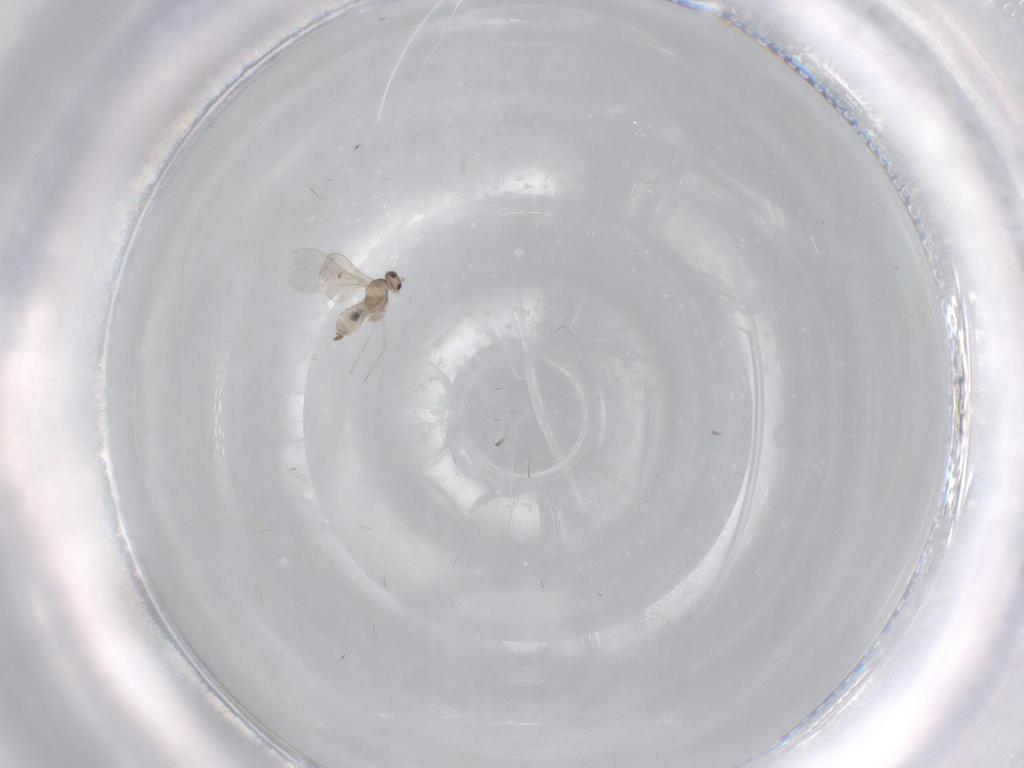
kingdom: Animalia
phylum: Arthropoda
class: Insecta
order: Diptera
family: Cecidomyiidae
